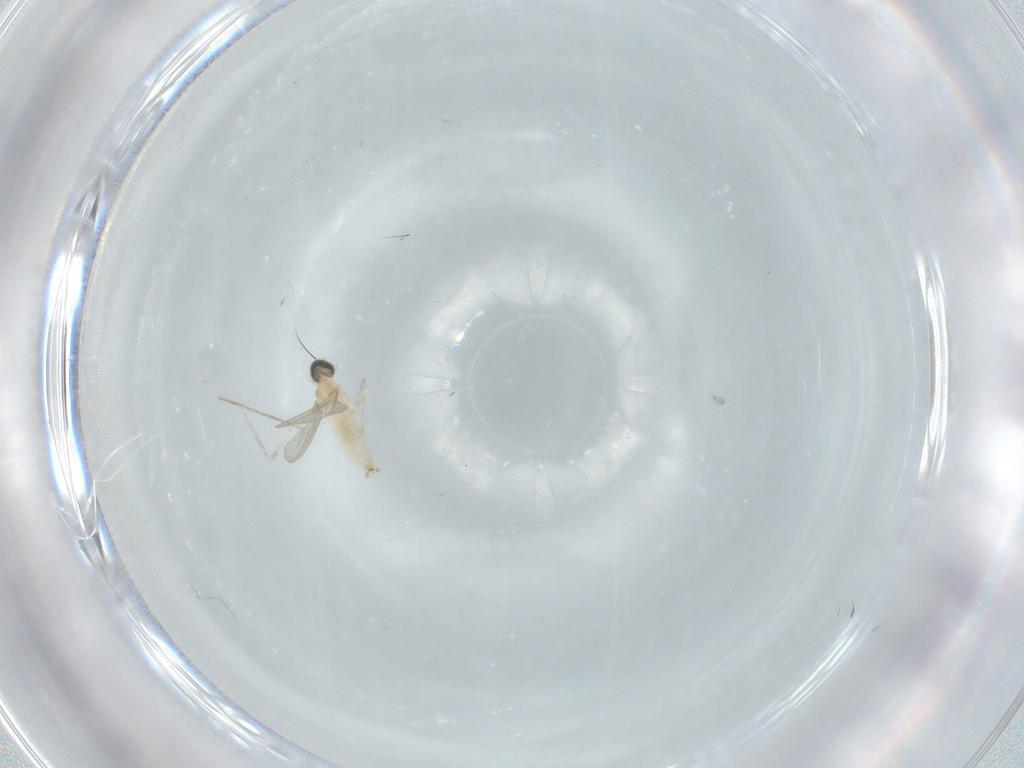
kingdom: Animalia
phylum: Arthropoda
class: Insecta
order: Diptera
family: Cecidomyiidae
